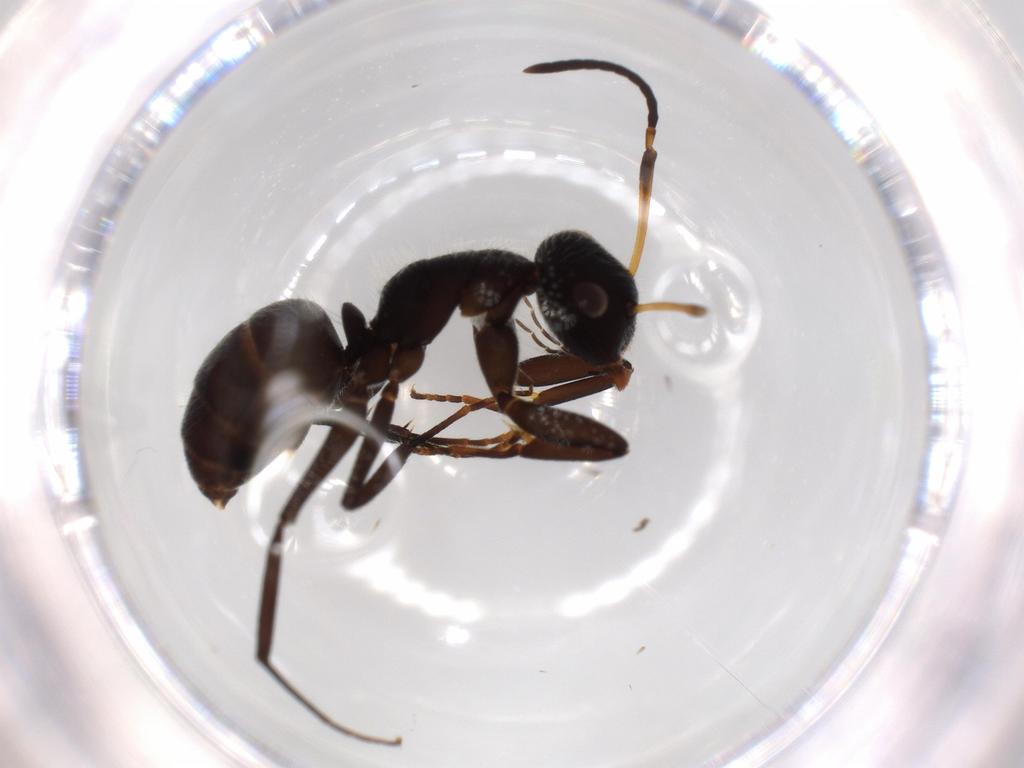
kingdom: Animalia
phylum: Arthropoda
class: Insecta
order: Hymenoptera
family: Formicidae
